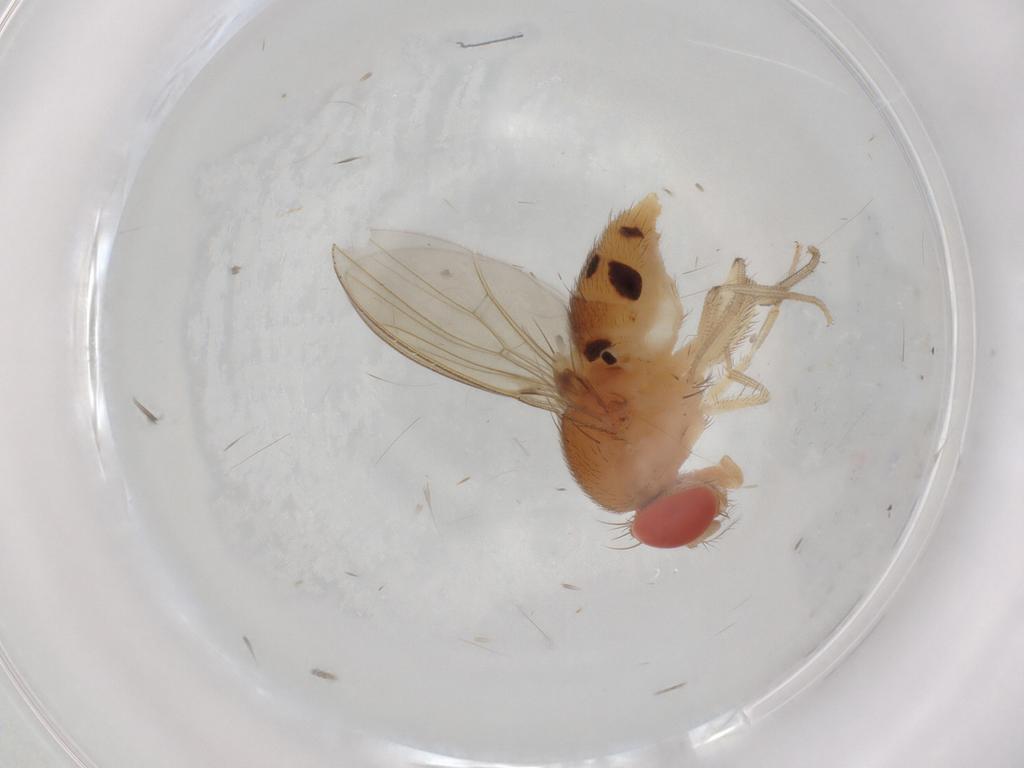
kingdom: Animalia
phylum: Arthropoda
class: Insecta
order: Diptera
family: Drosophilidae
